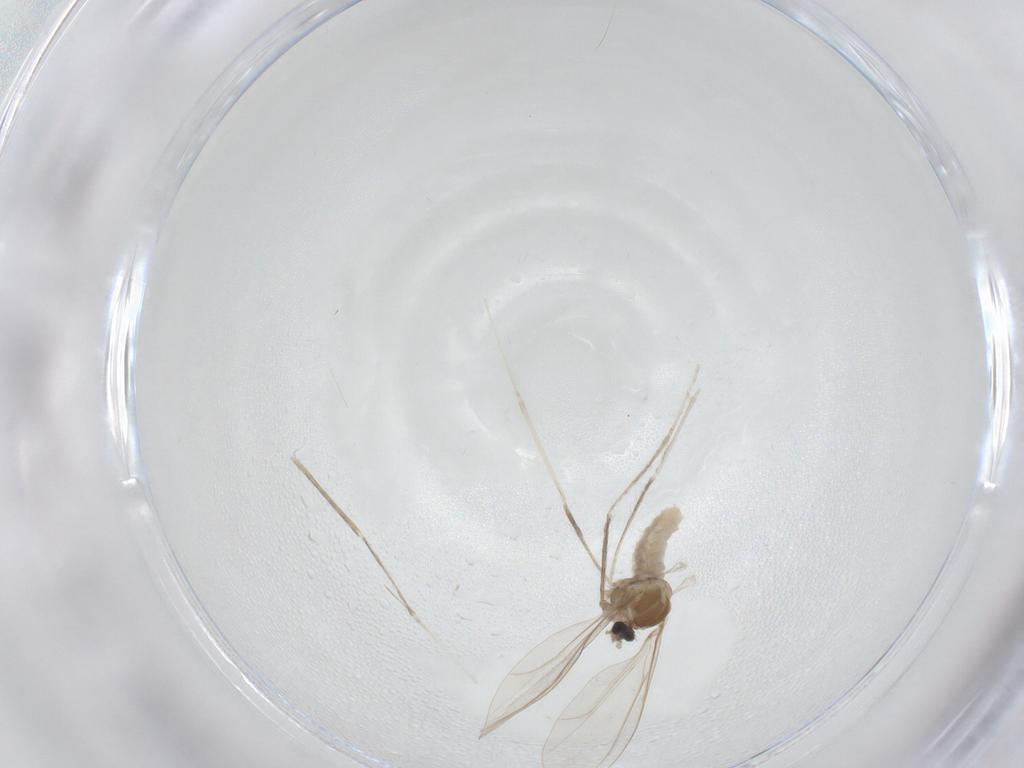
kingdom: Animalia
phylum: Arthropoda
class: Insecta
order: Diptera
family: Cecidomyiidae
